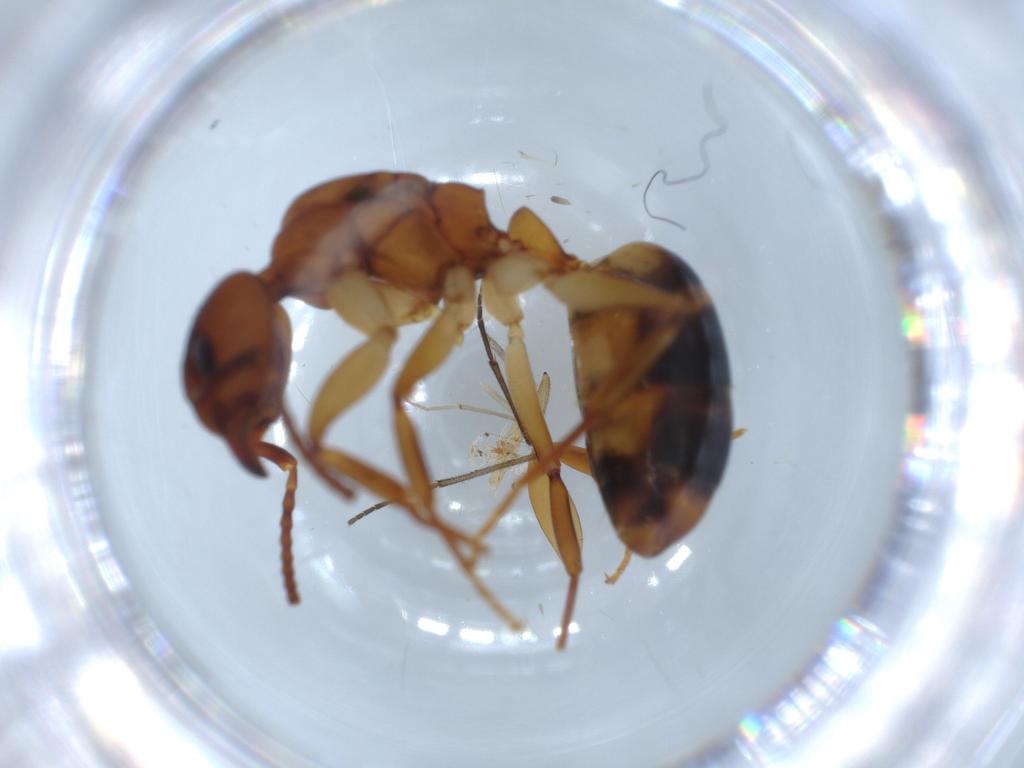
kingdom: Animalia
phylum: Arthropoda
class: Insecta
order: Hymenoptera
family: Formicidae
